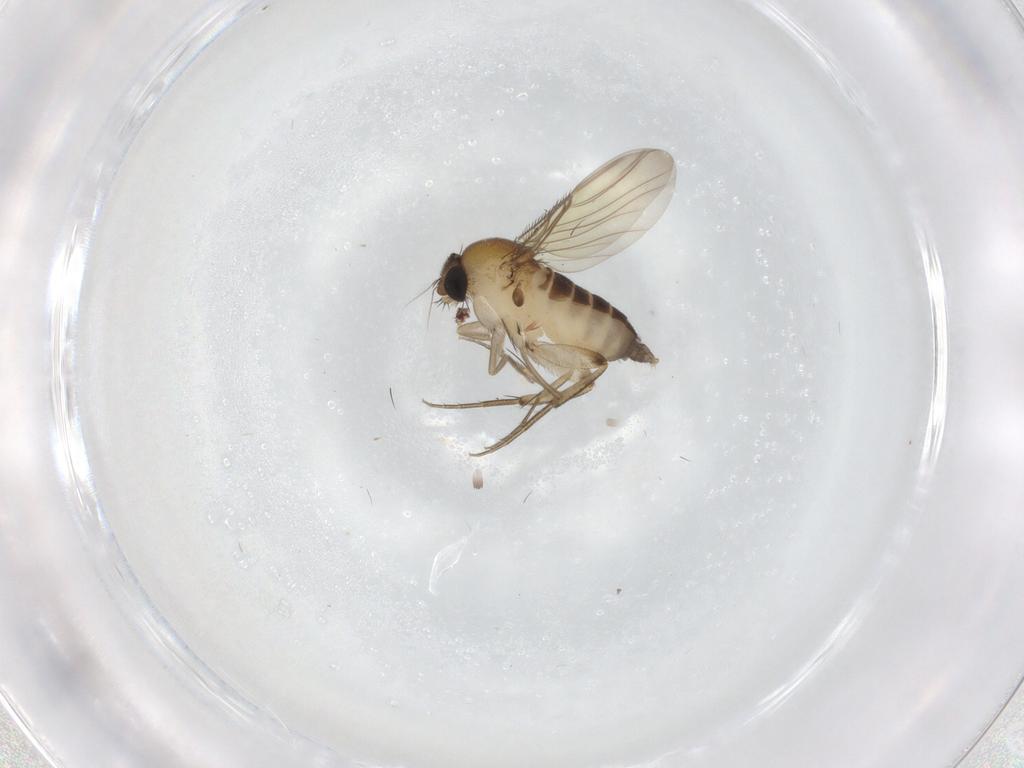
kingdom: Animalia
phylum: Arthropoda
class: Insecta
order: Diptera
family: Phoridae
